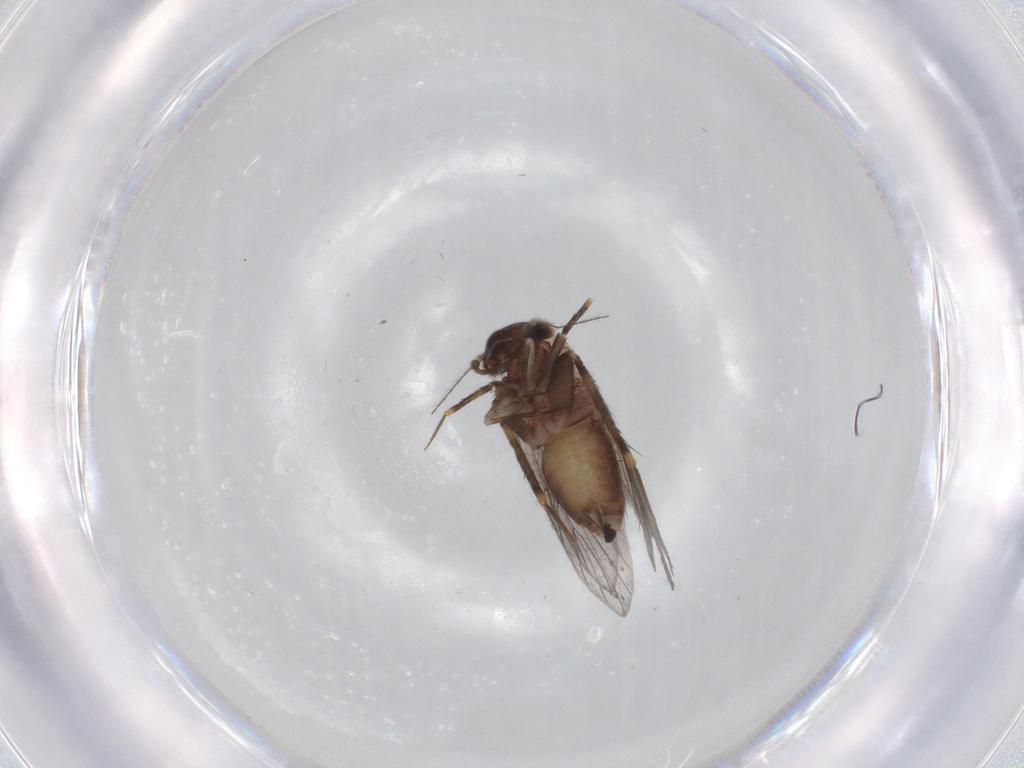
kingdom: Animalia
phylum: Arthropoda
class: Insecta
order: Psocodea
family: Lepidopsocidae
